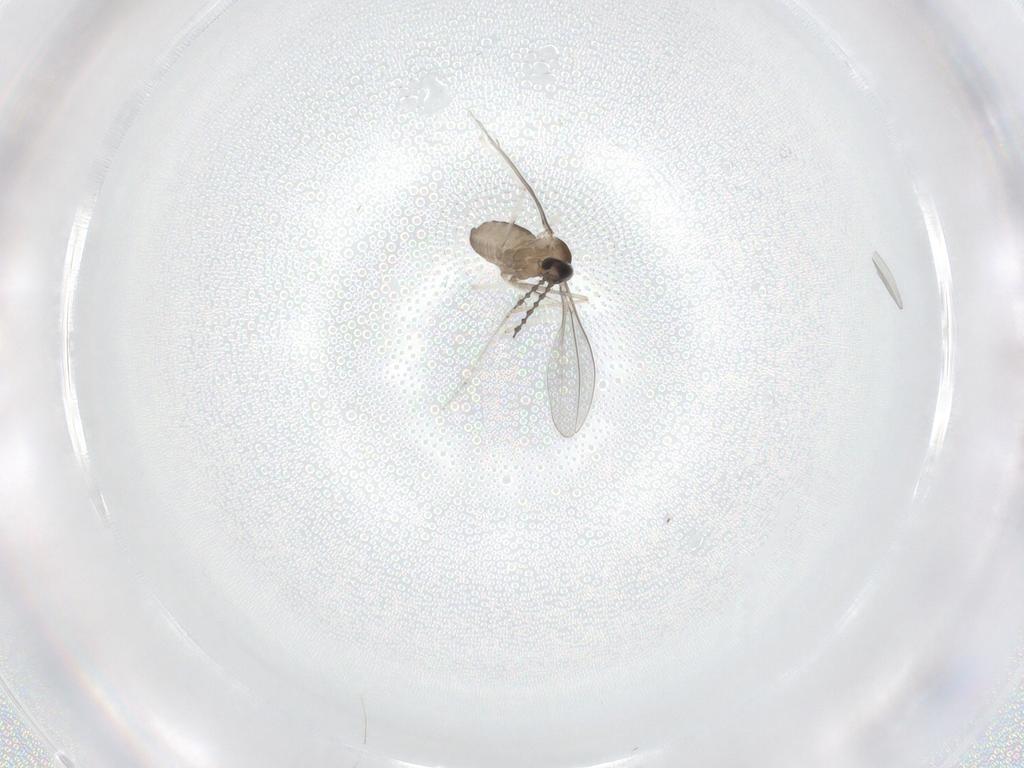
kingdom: Animalia
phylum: Arthropoda
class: Insecta
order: Diptera
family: Cecidomyiidae
